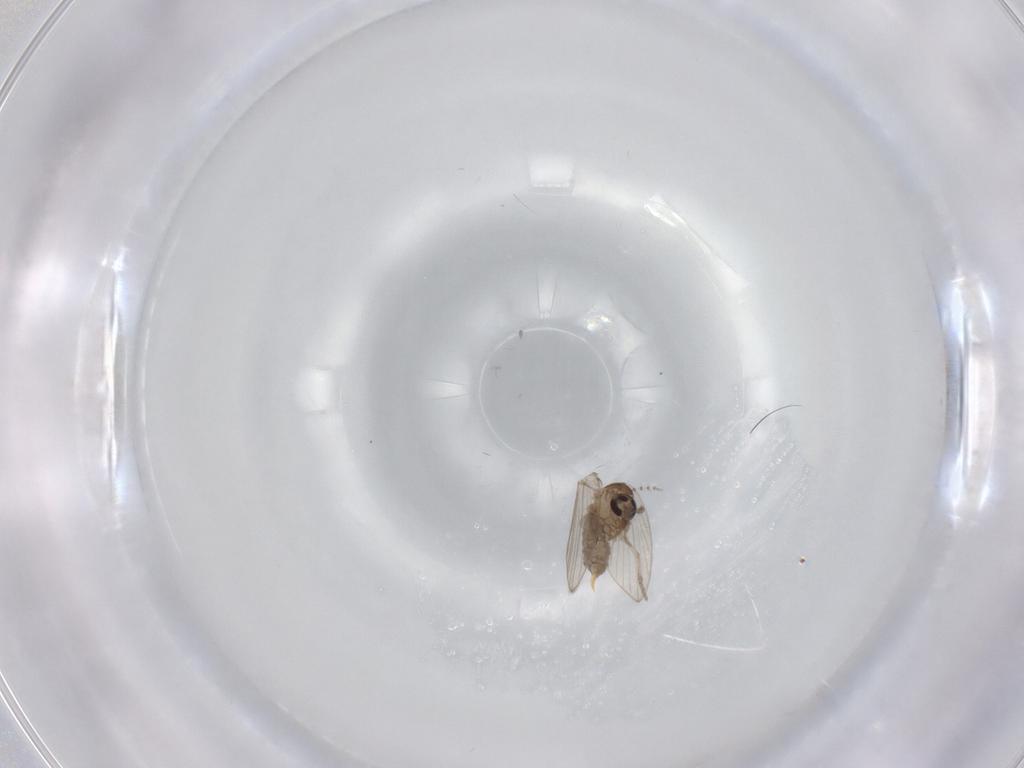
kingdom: Animalia
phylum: Arthropoda
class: Insecta
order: Diptera
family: Psychodidae
